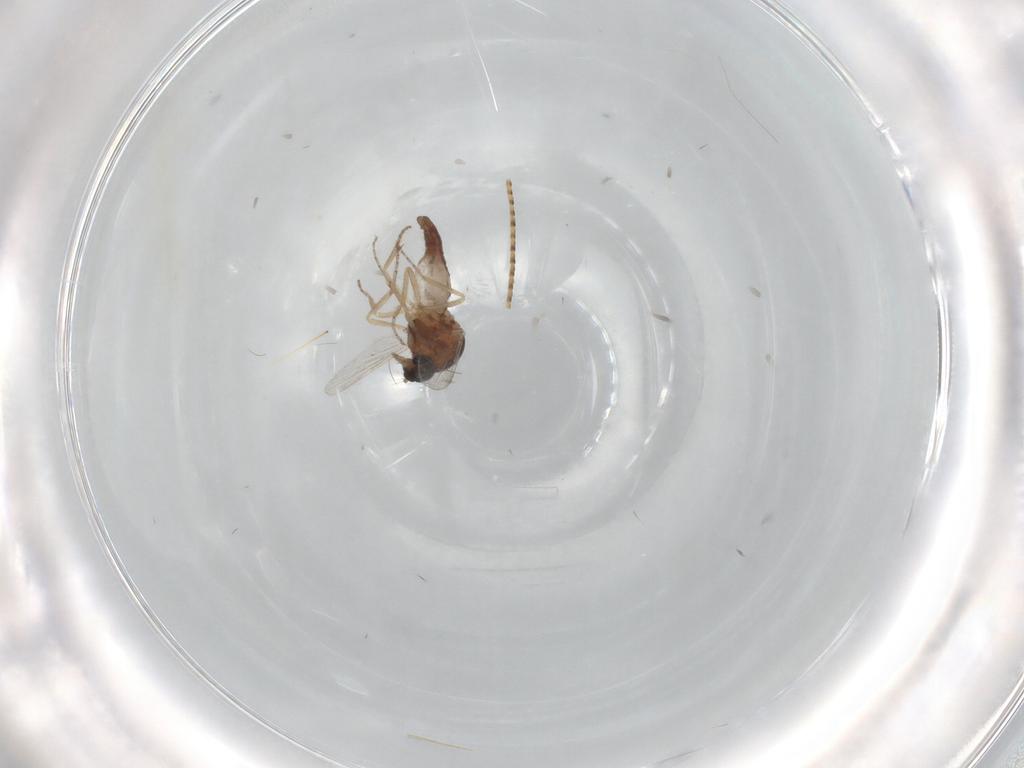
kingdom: Animalia
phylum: Arthropoda
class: Insecta
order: Diptera
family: Ceratopogonidae
